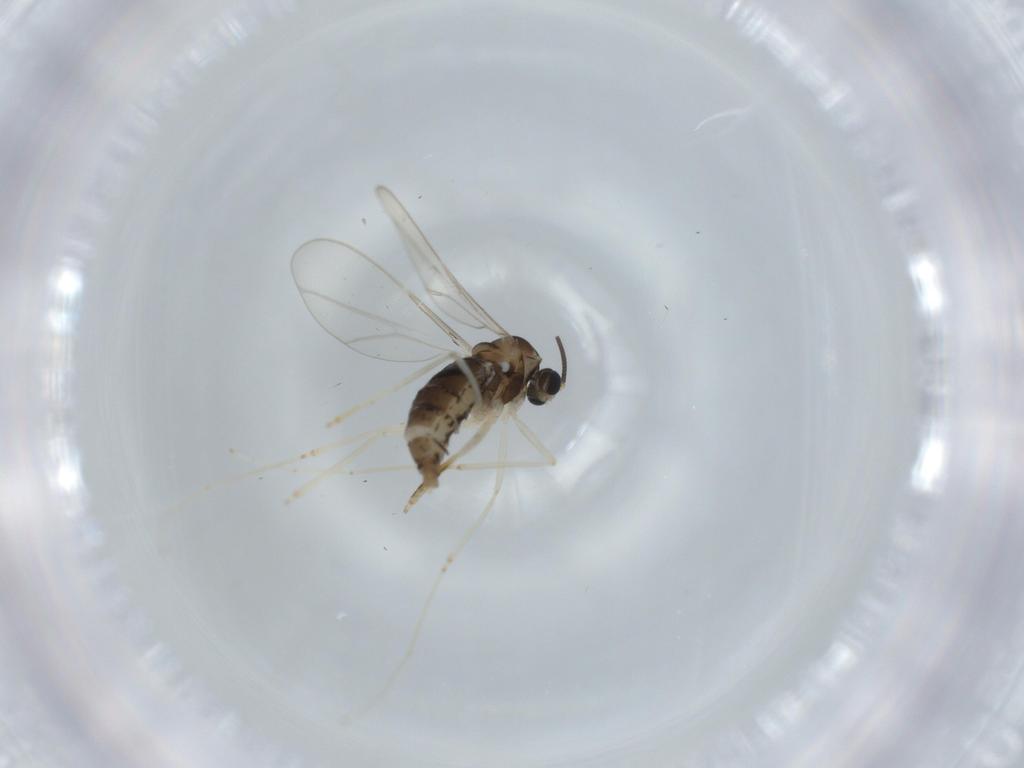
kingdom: Animalia
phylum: Arthropoda
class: Insecta
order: Diptera
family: Cecidomyiidae
